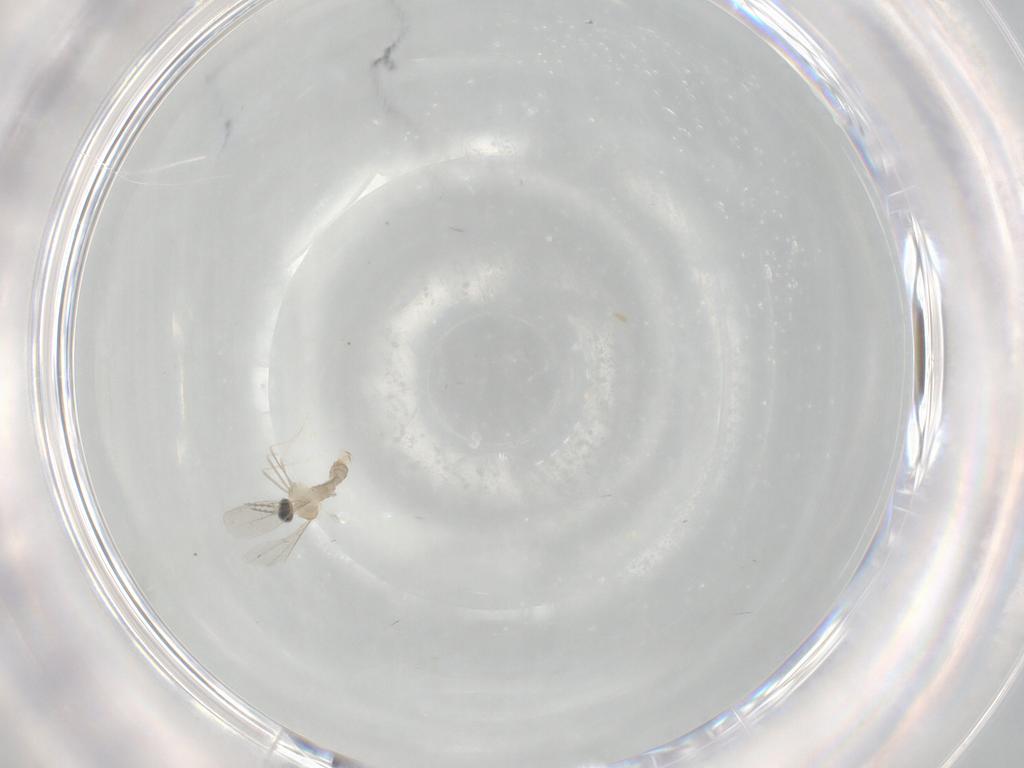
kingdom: Animalia
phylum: Arthropoda
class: Insecta
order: Diptera
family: Cecidomyiidae
